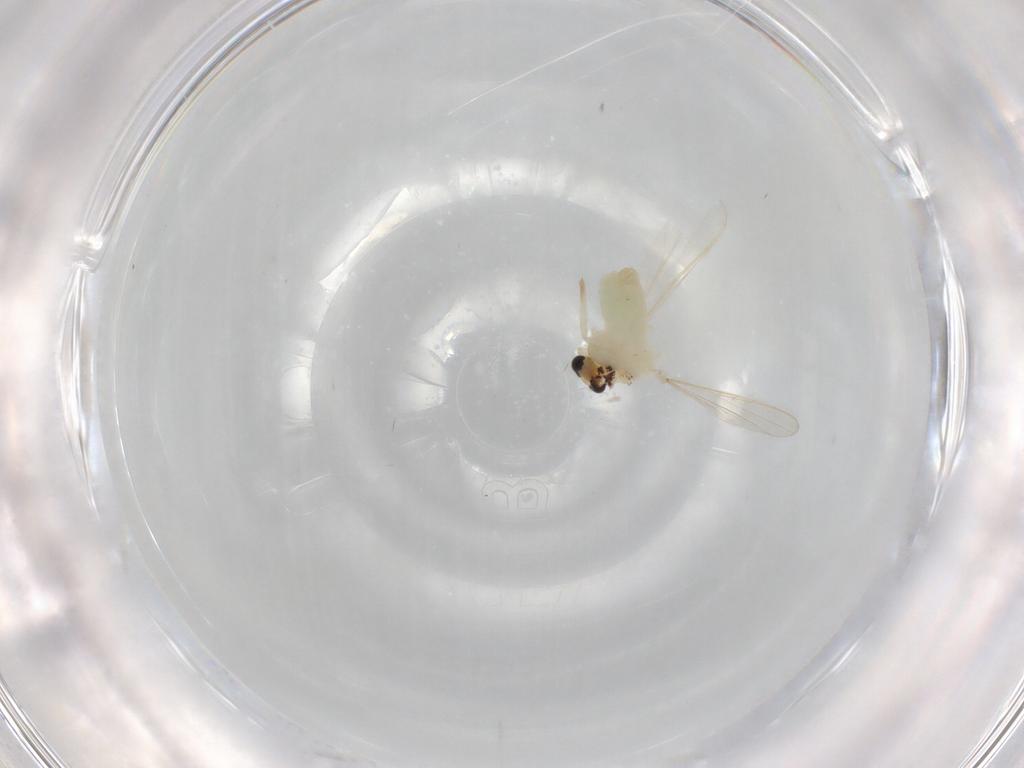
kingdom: Animalia
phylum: Arthropoda
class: Insecta
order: Diptera
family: Chironomidae
